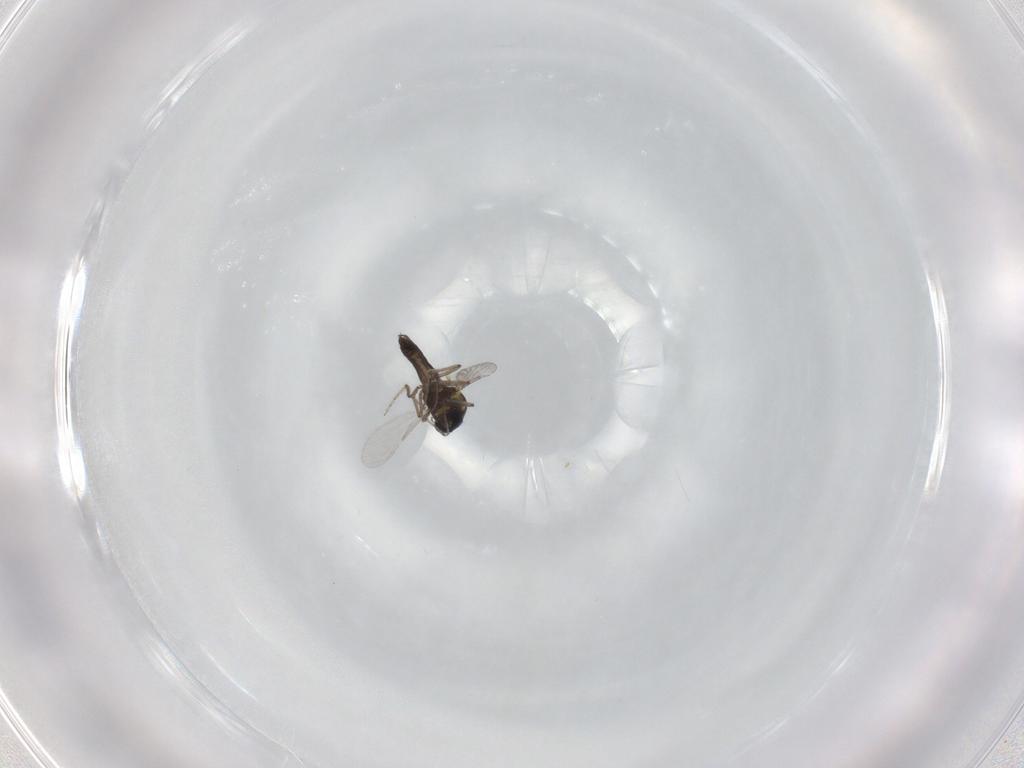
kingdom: Animalia
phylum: Arthropoda
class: Insecta
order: Diptera
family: Ceratopogonidae
